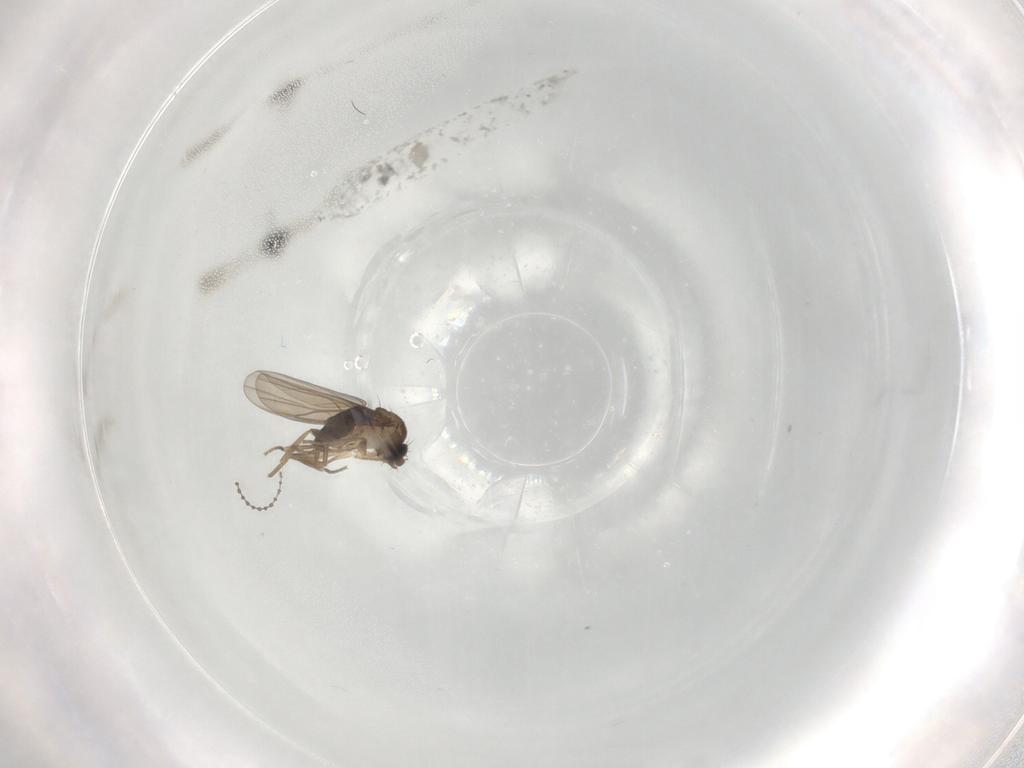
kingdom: Animalia
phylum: Arthropoda
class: Insecta
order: Diptera
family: Cecidomyiidae
